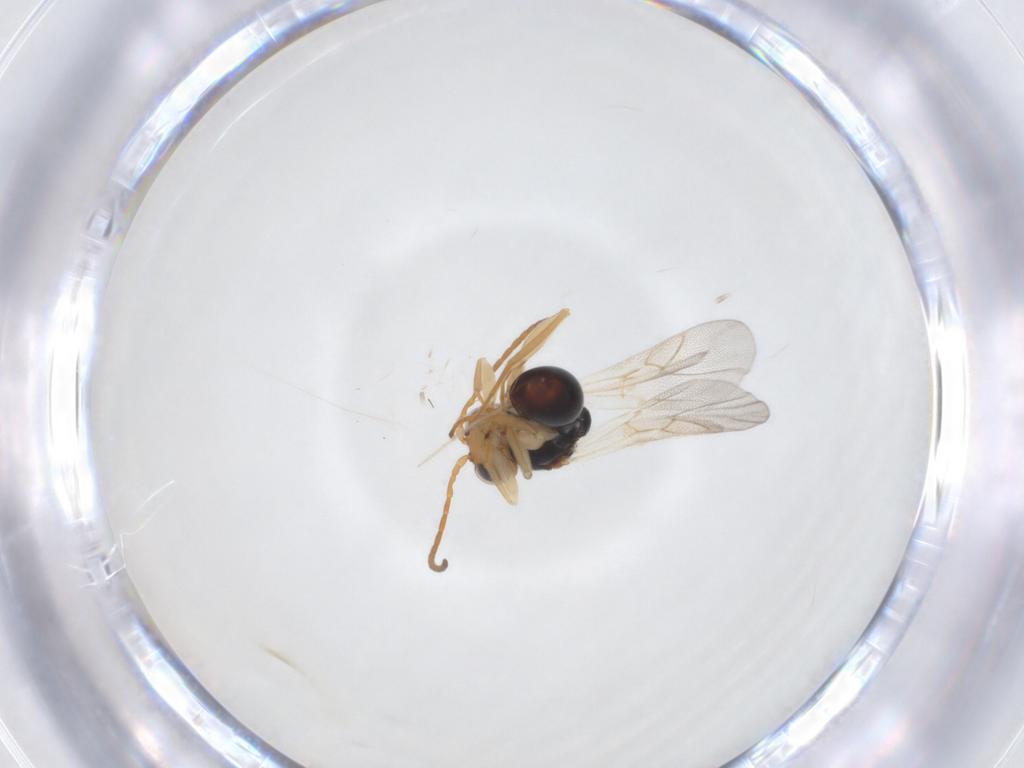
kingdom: Animalia
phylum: Arthropoda
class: Insecta
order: Hymenoptera
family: Cynipidae
